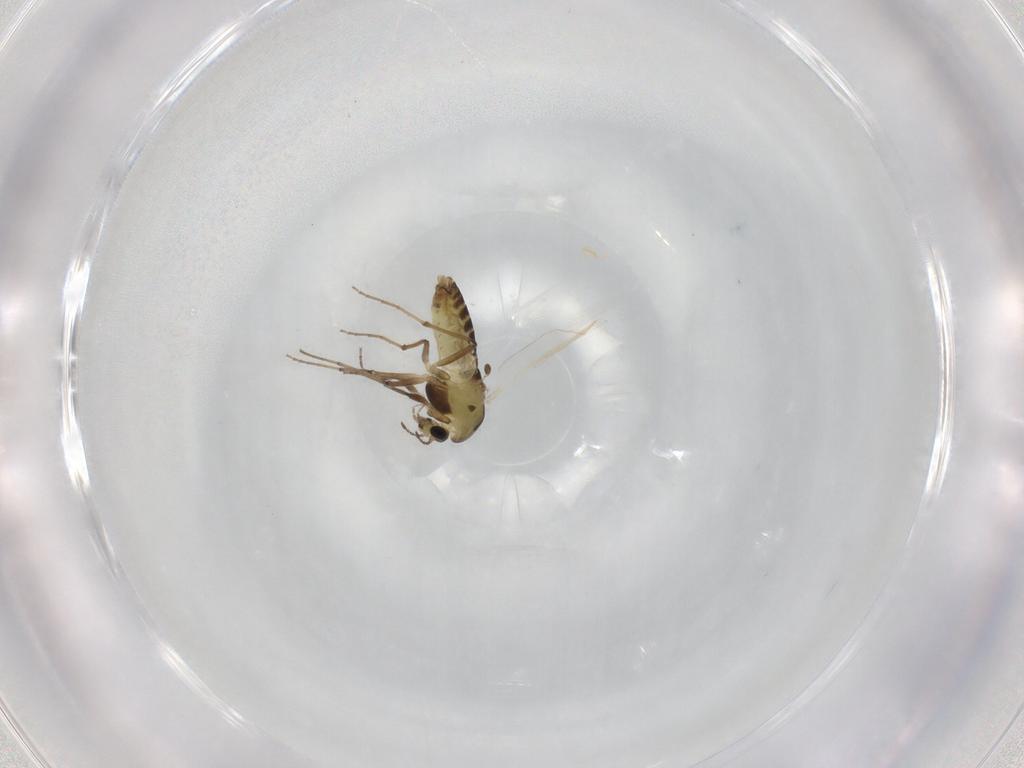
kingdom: Animalia
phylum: Arthropoda
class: Insecta
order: Diptera
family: Chironomidae
